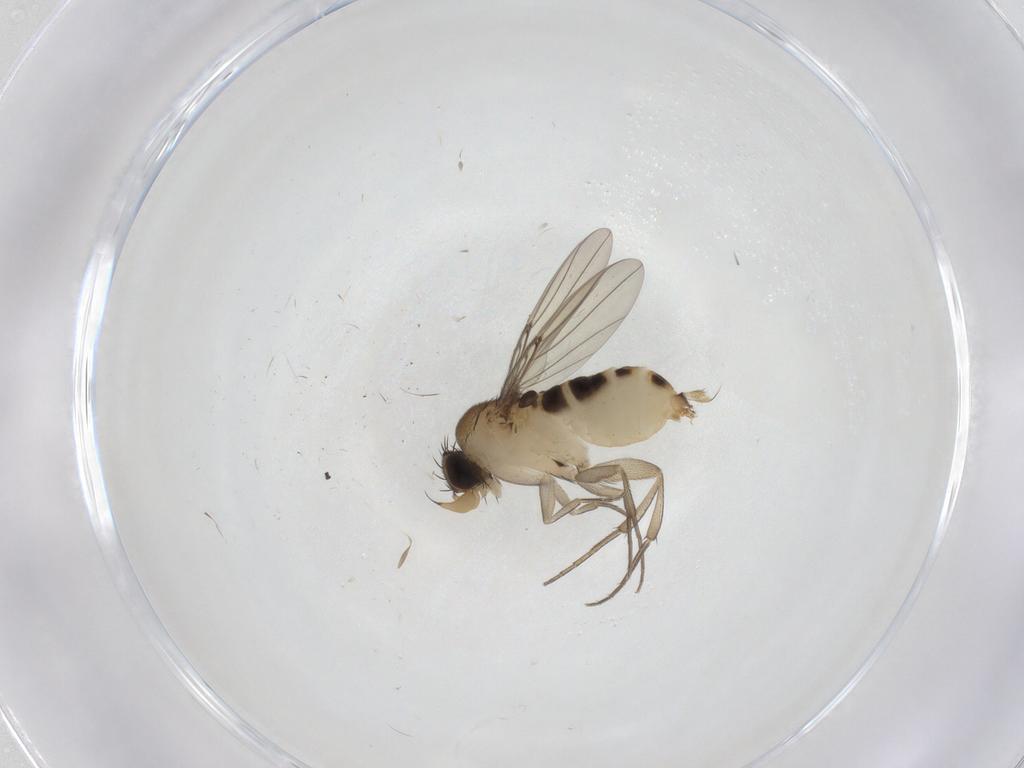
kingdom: Animalia
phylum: Arthropoda
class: Insecta
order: Diptera
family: Phoridae
